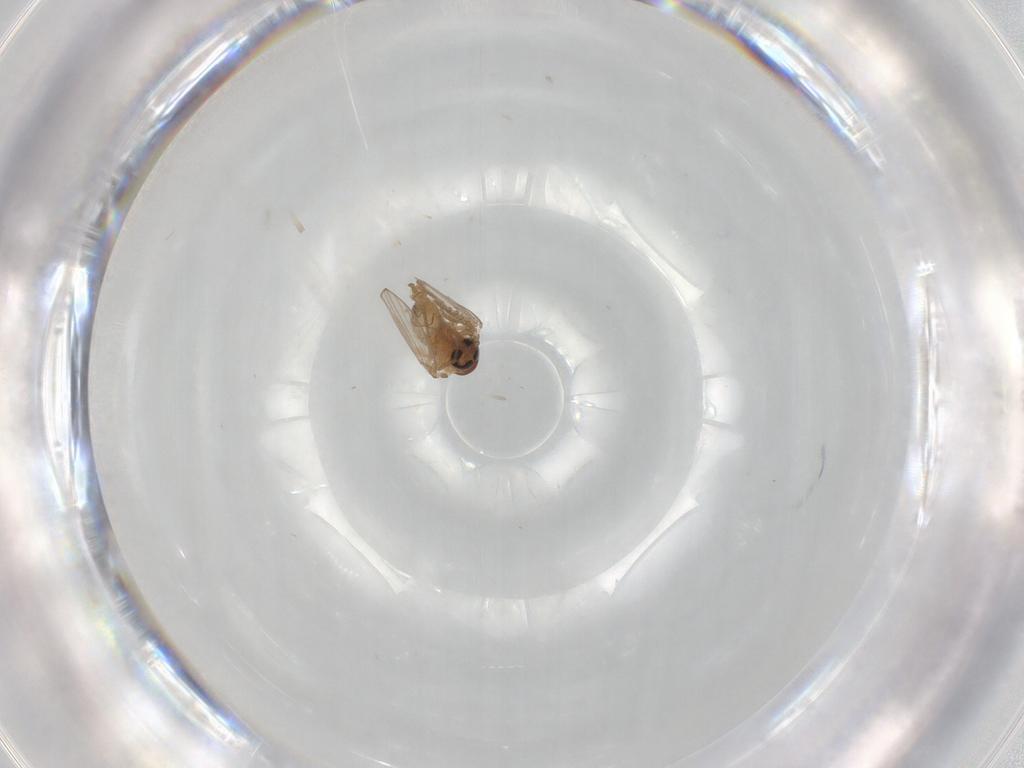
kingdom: Animalia
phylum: Arthropoda
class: Insecta
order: Diptera
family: Psychodidae
